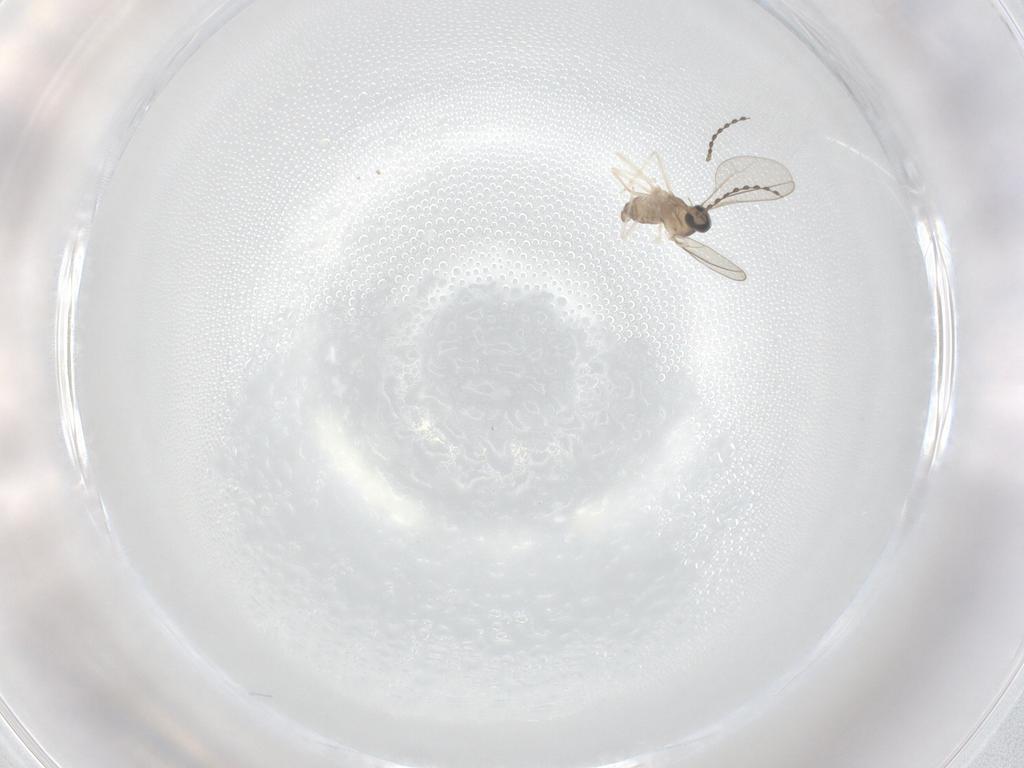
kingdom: Animalia
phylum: Arthropoda
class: Insecta
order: Diptera
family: Cecidomyiidae
